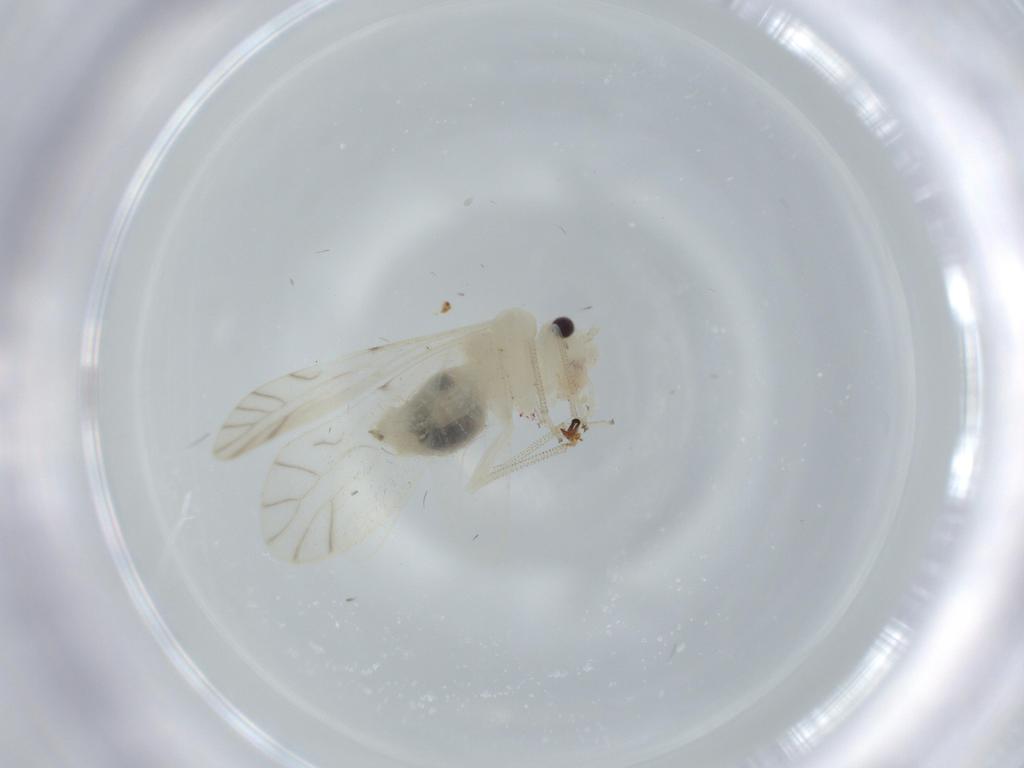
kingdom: Animalia
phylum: Arthropoda
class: Insecta
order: Psocodea
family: Caeciliusidae
